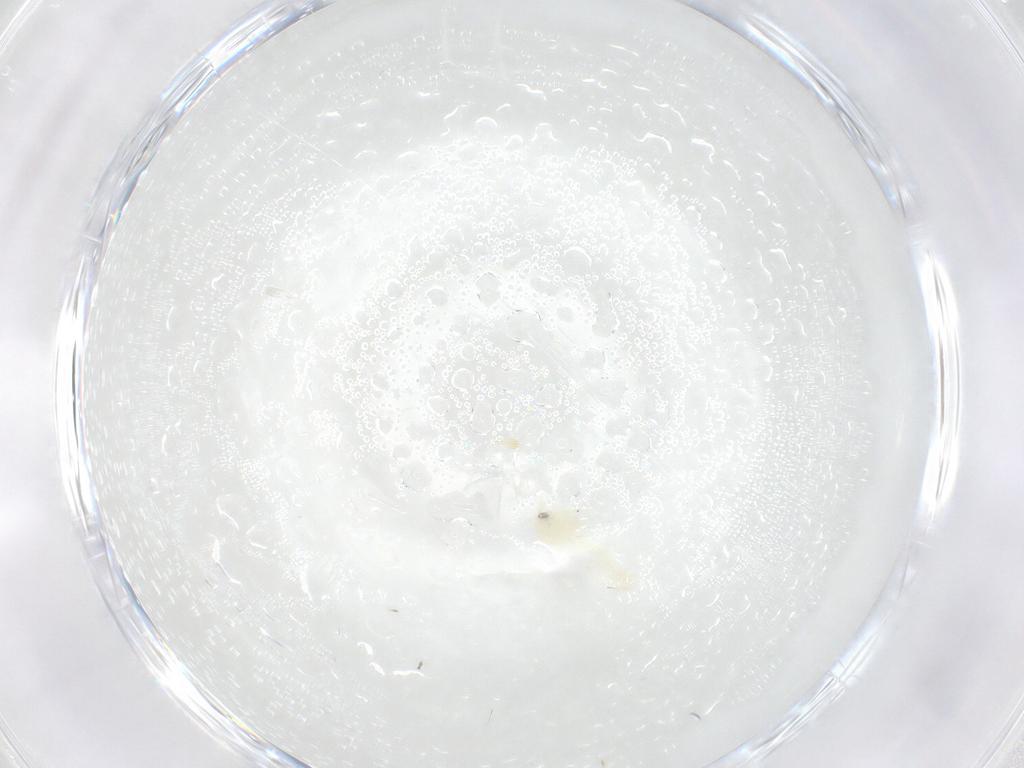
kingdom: Animalia
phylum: Arthropoda
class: Insecta
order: Hemiptera
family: Aleyrodidae
